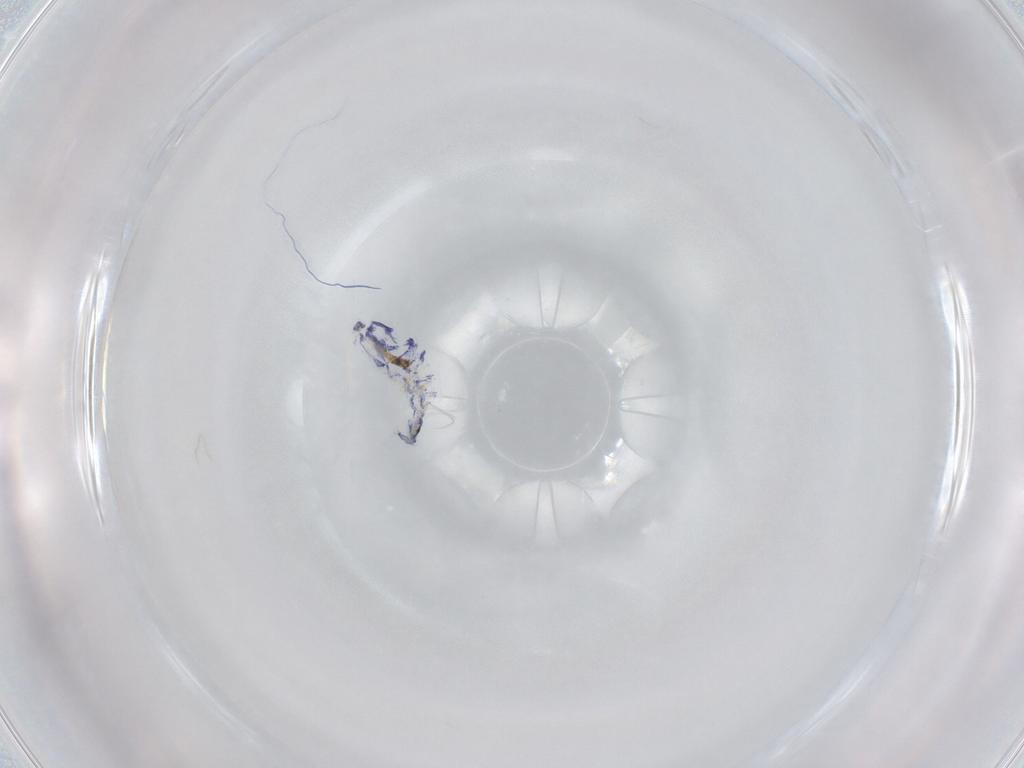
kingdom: Animalia
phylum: Arthropoda
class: Collembola
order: Entomobryomorpha
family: Entomobryidae
